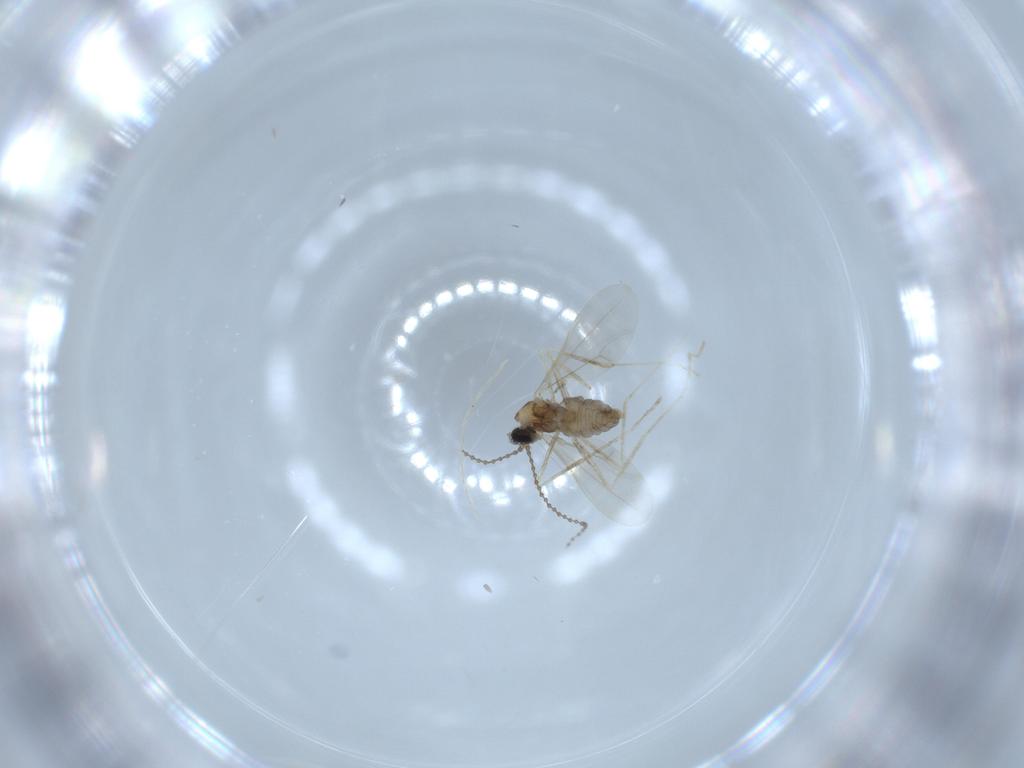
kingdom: Animalia
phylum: Arthropoda
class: Insecta
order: Diptera
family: Cecidomyiidae
